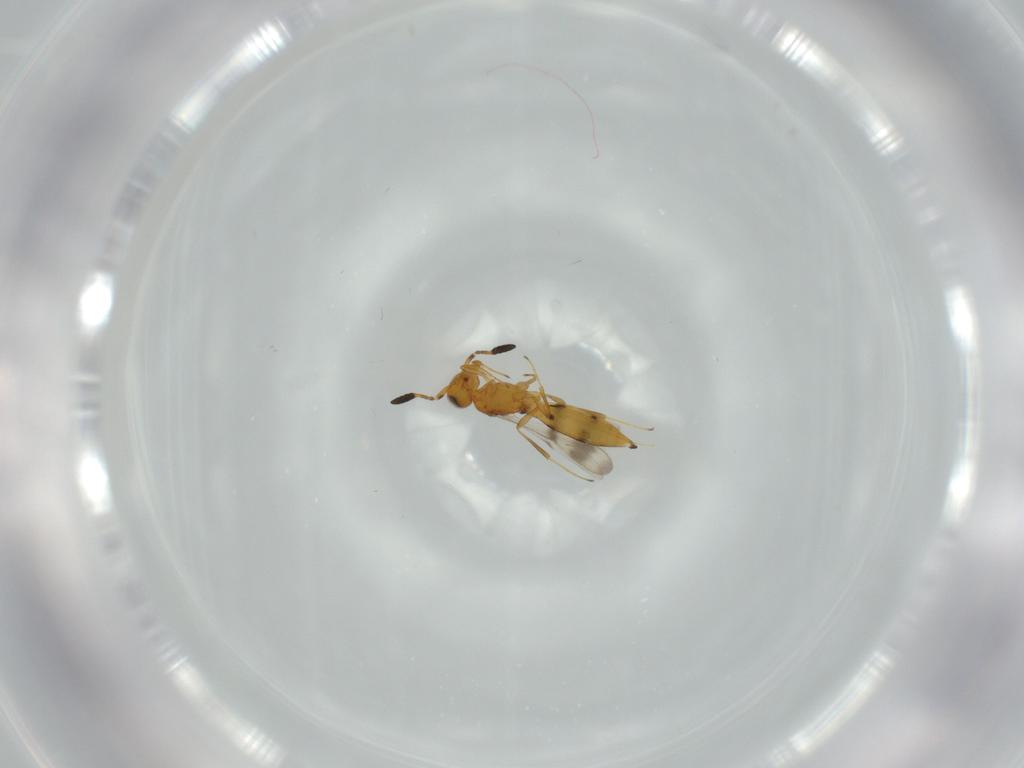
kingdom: Animalia
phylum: Arthropoda
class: Insecta
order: Hymenoptera
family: Scelionidae
